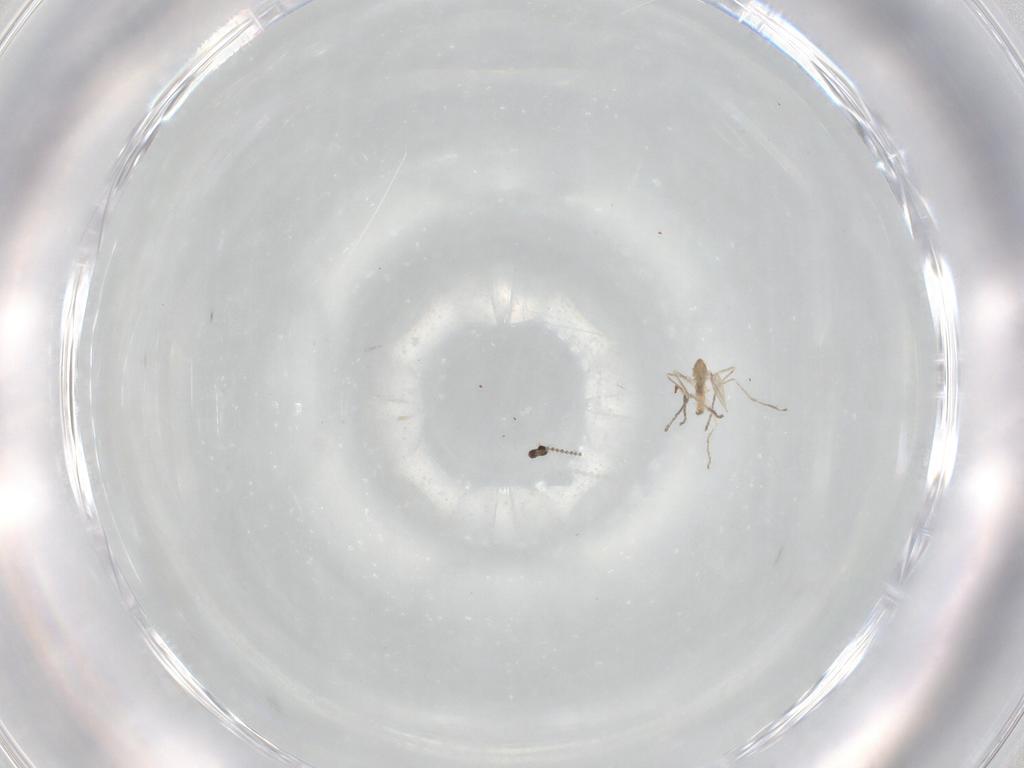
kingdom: Animalia
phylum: Arthropoda
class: Insecta
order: Diptera
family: Cecidomyiidae
